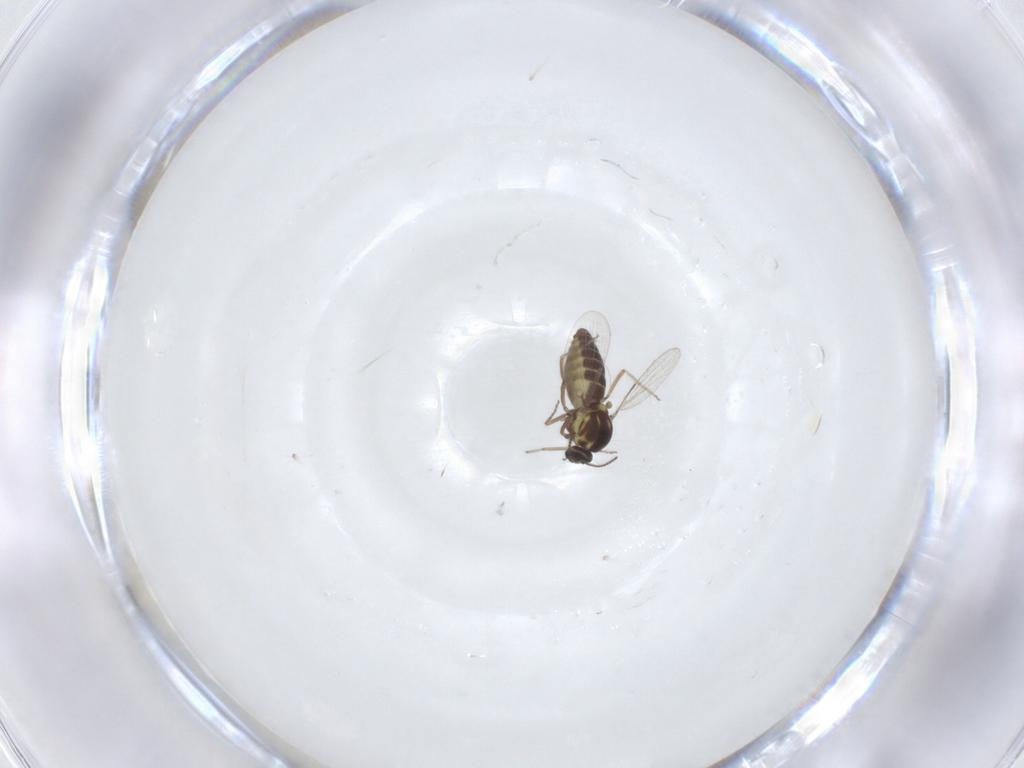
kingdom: Animalia
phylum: Arthropoda
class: Insecta
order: Diptera
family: Ceratopogonidae
